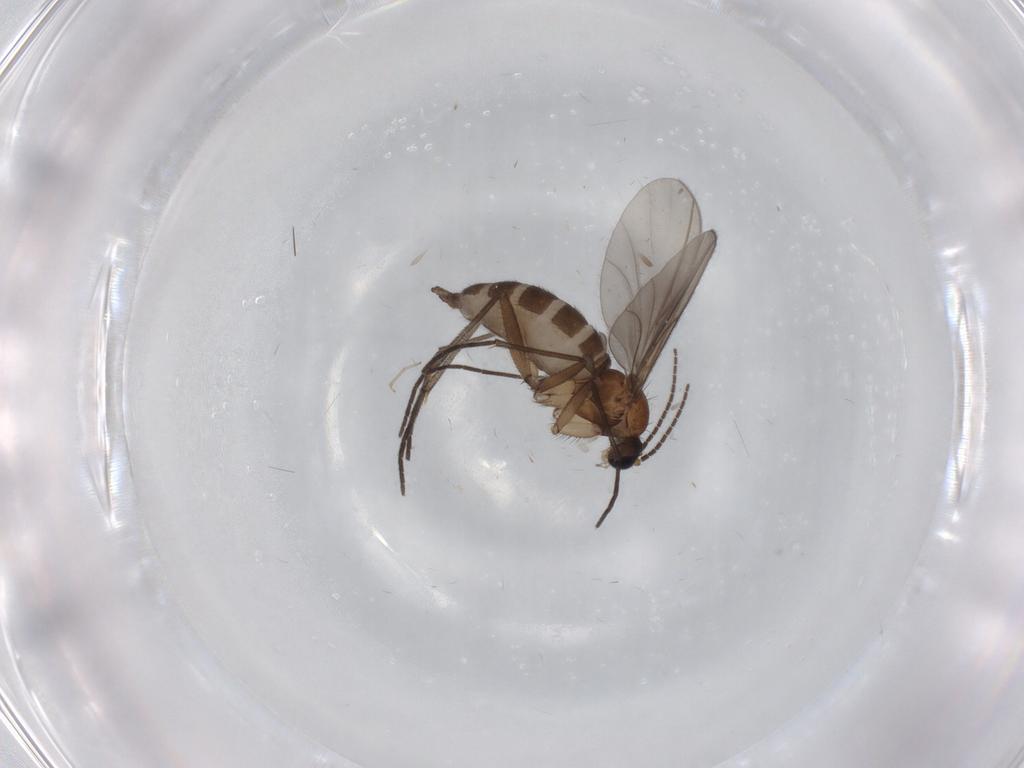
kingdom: Animalia
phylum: Arthropoda
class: Insecta
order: Diptera
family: Sciaridae
